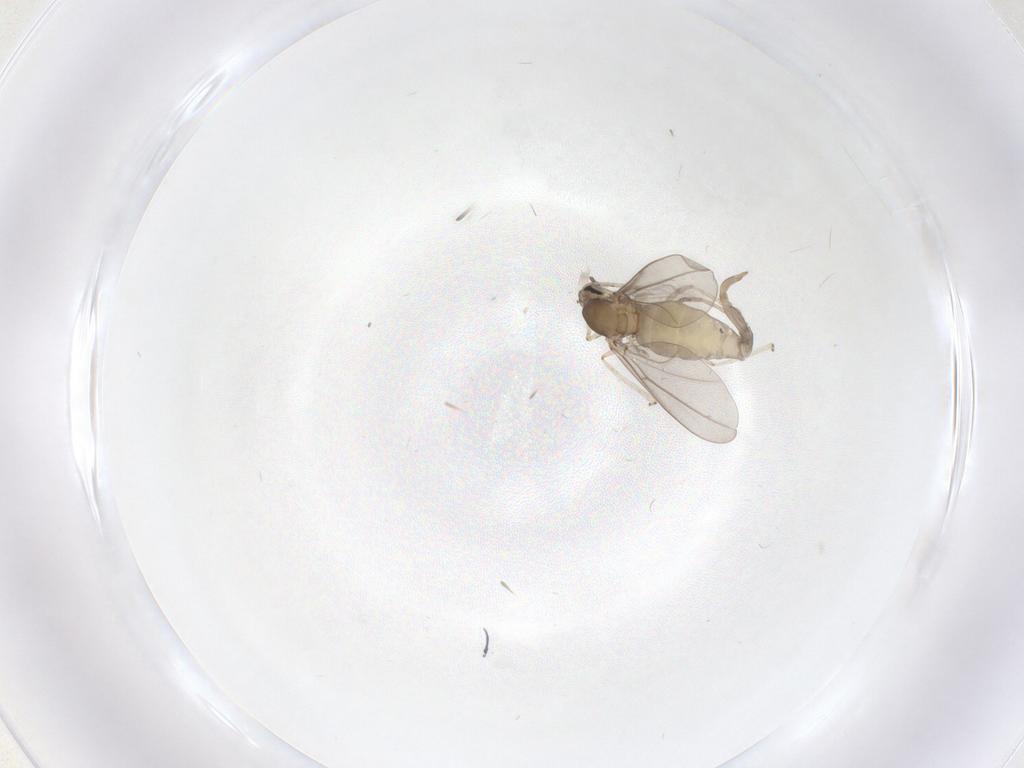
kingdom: Animalia
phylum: Arthropoda
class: Insecta
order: Diptera
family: Cecidomyiidae
